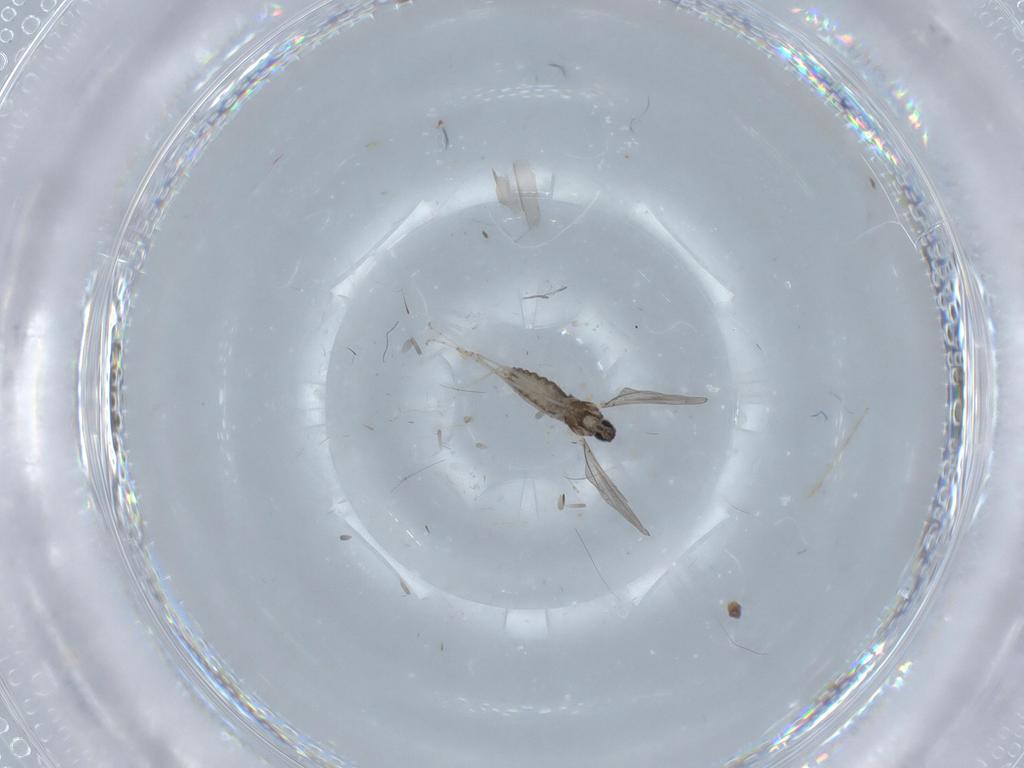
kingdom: Animalia
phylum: Arthropoda
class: Insecta
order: Diptera
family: Cecidomyiidae
